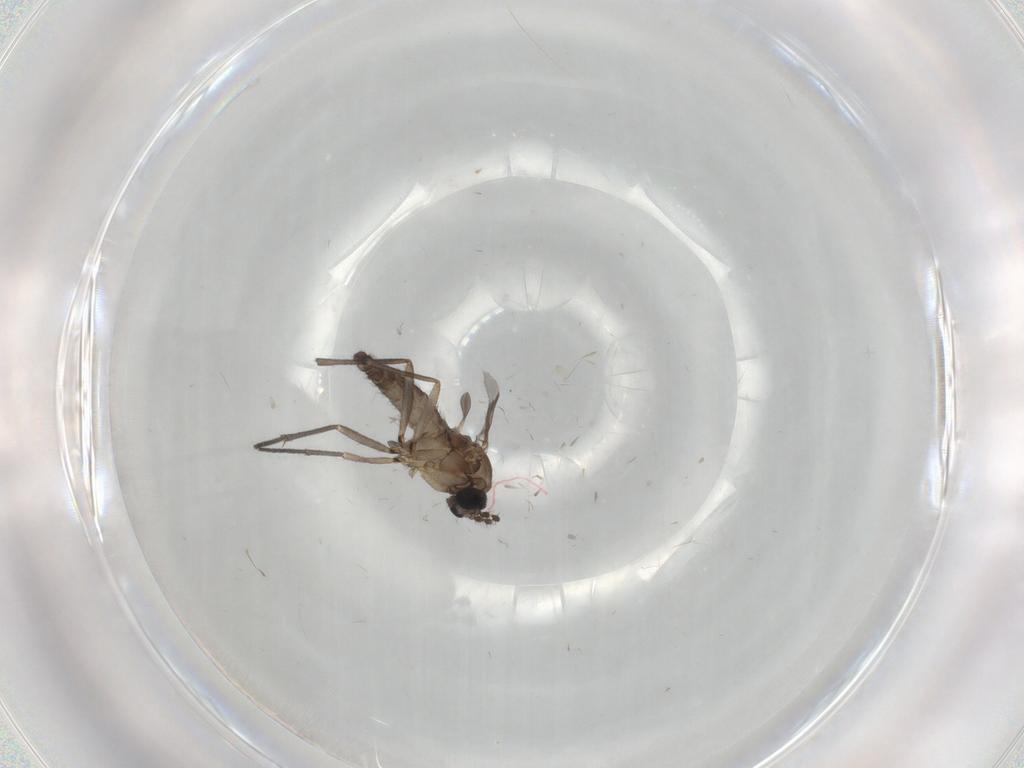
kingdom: Animalia
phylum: Arthropoda
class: Insecta
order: Diptera
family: Sciaridae
